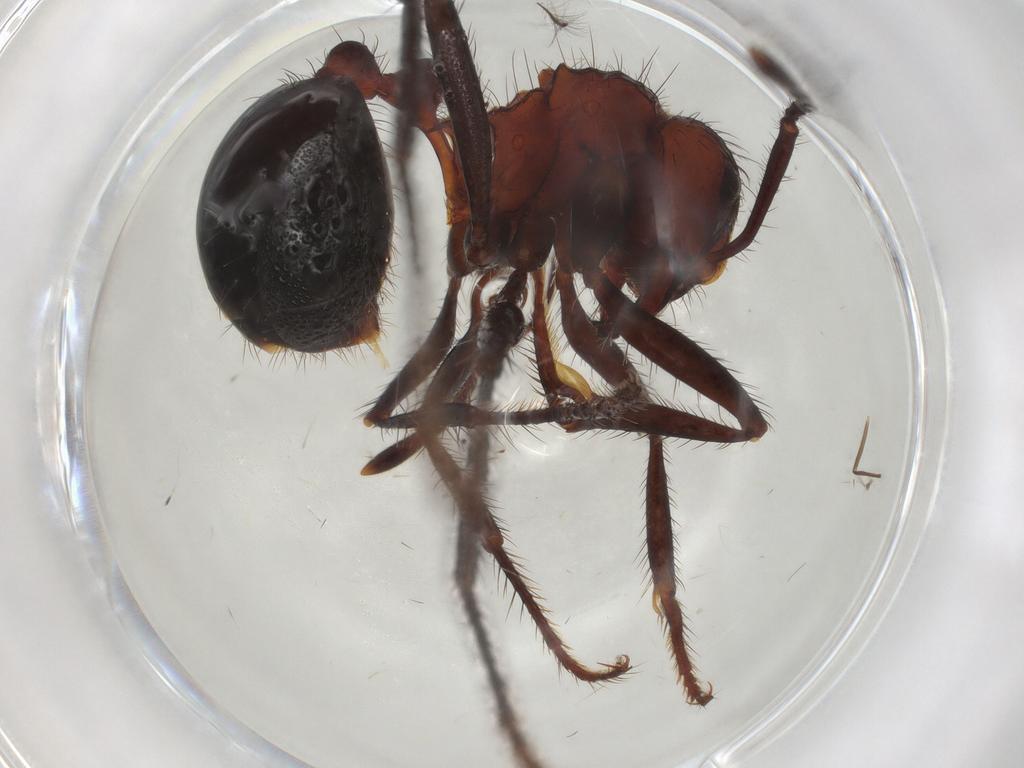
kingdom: Animalia
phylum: Arthropoda
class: Insecta
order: Hymenoptera
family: Formicidae
